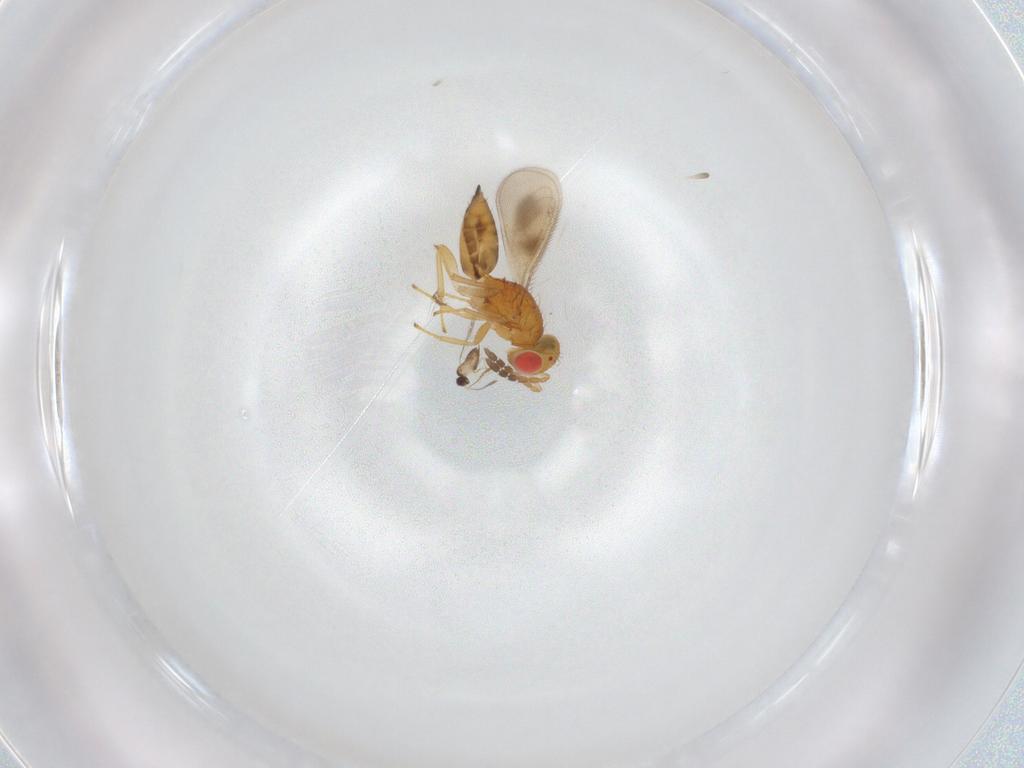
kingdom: Animalia
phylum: Arthropoda
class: Insecta
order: Hymenoptera
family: Eulophidae
